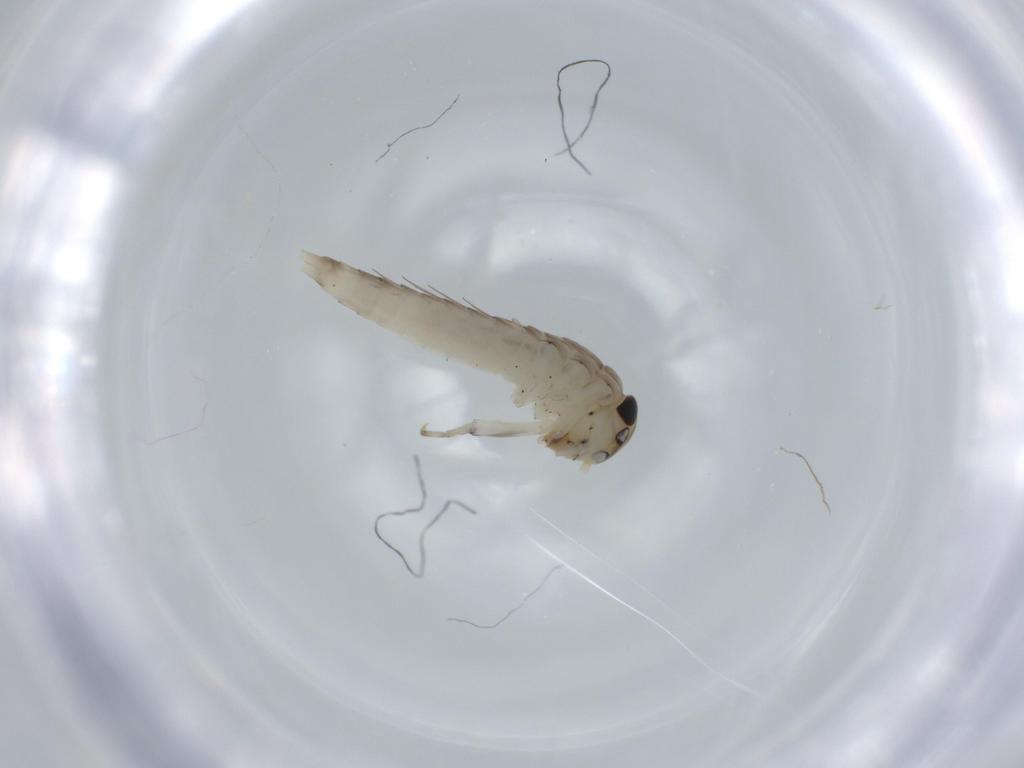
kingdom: Animalia
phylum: Arthropoda
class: Insecta
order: Ephemeroptera
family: Baetidae
